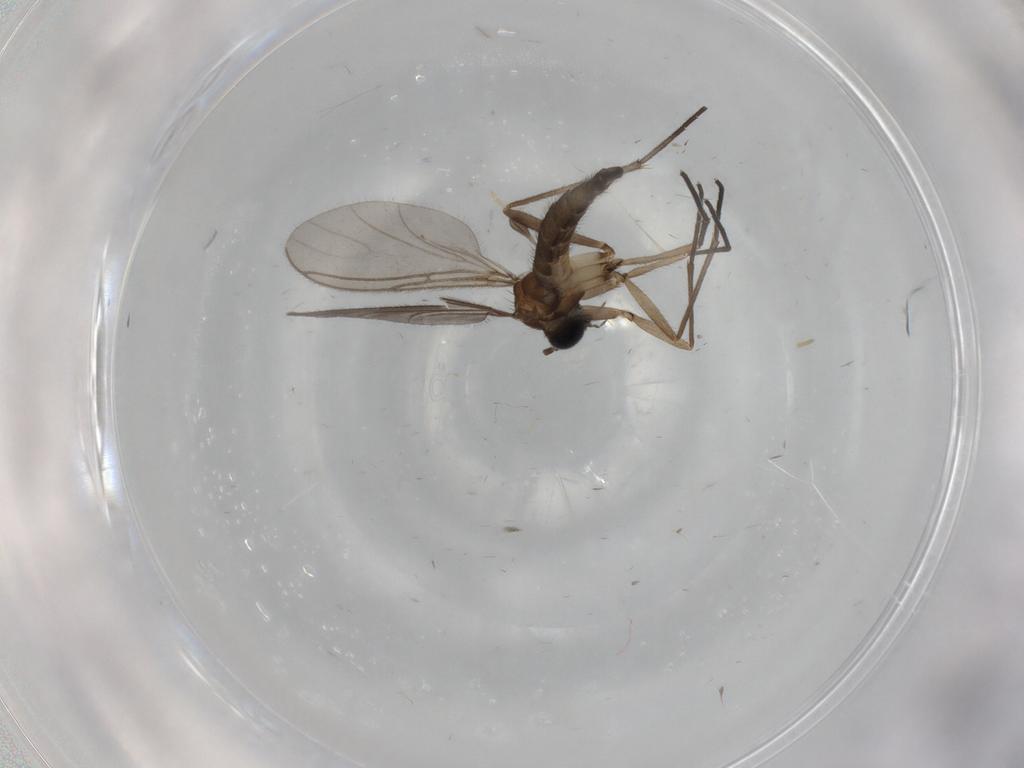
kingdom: Animalia
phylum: Arthropoda
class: Insecta
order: Diptera
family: Sciaridae
